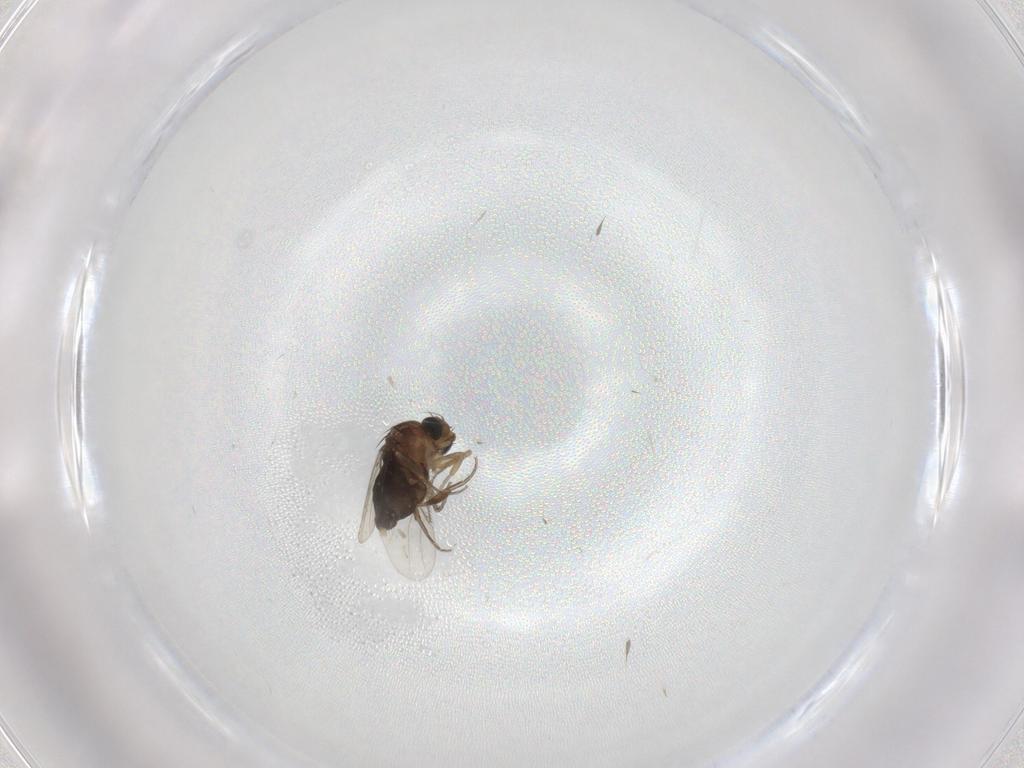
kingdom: Animalia
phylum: Arthropoda
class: Insecta
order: Diptera
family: Phoridae
